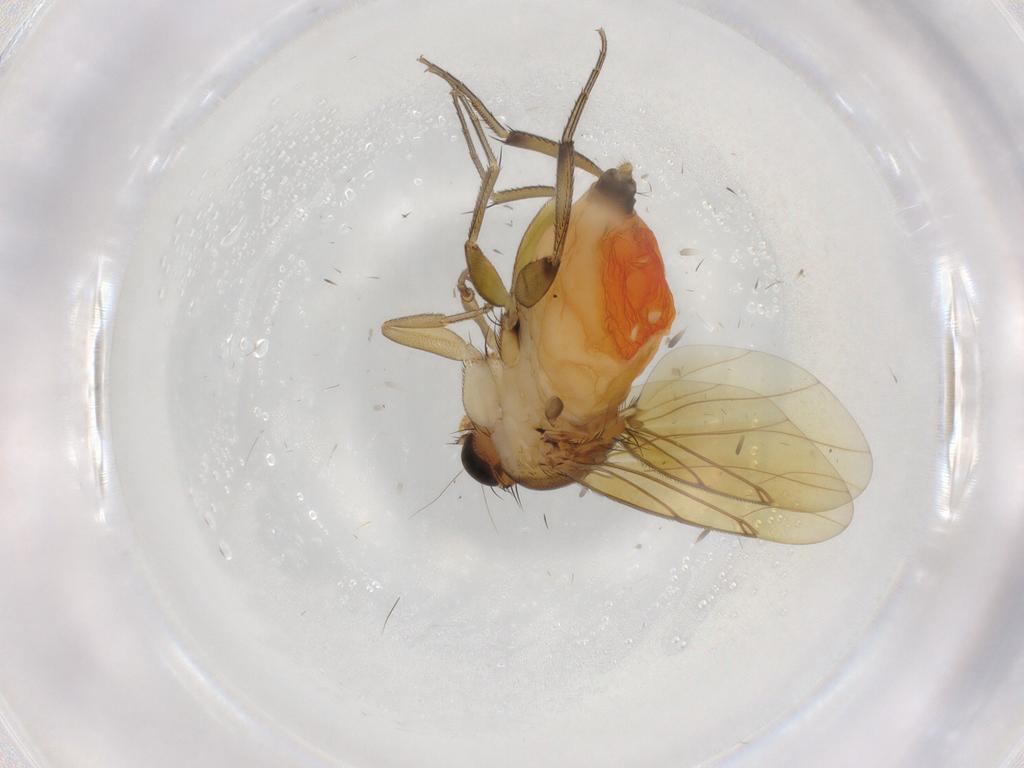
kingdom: Animalia
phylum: Arthropoda
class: Insecta
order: Diptera
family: Phoridae
